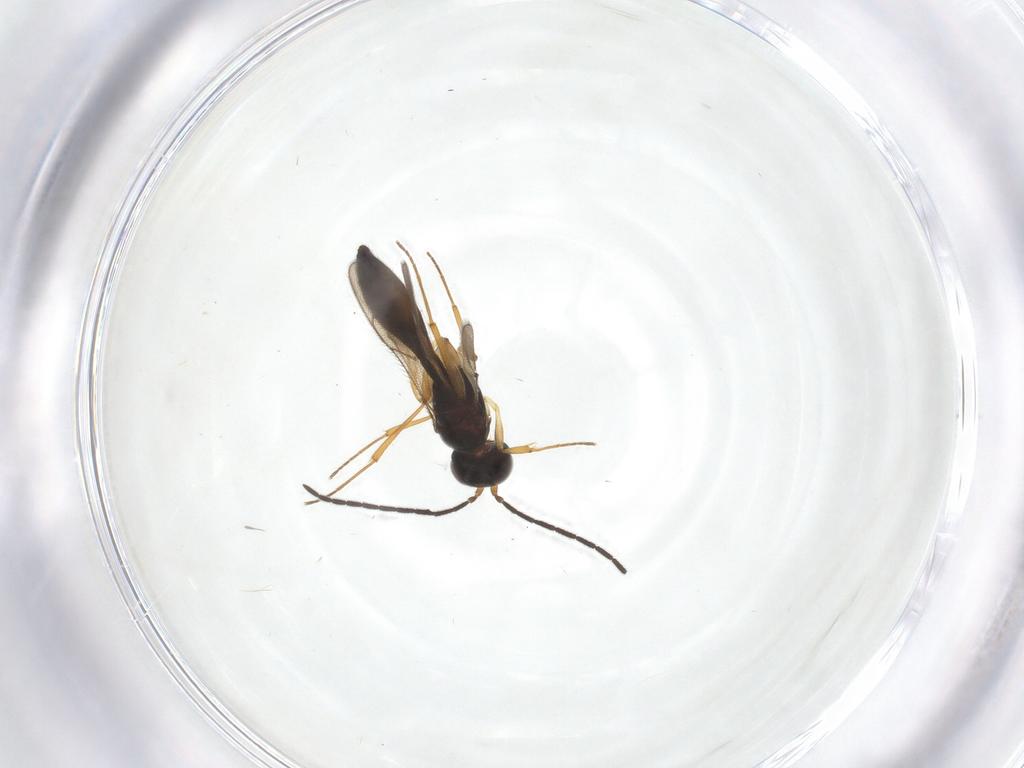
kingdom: Animalia
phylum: Arthropoda
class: Insecta
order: Hymenoptera
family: Scelionidae
